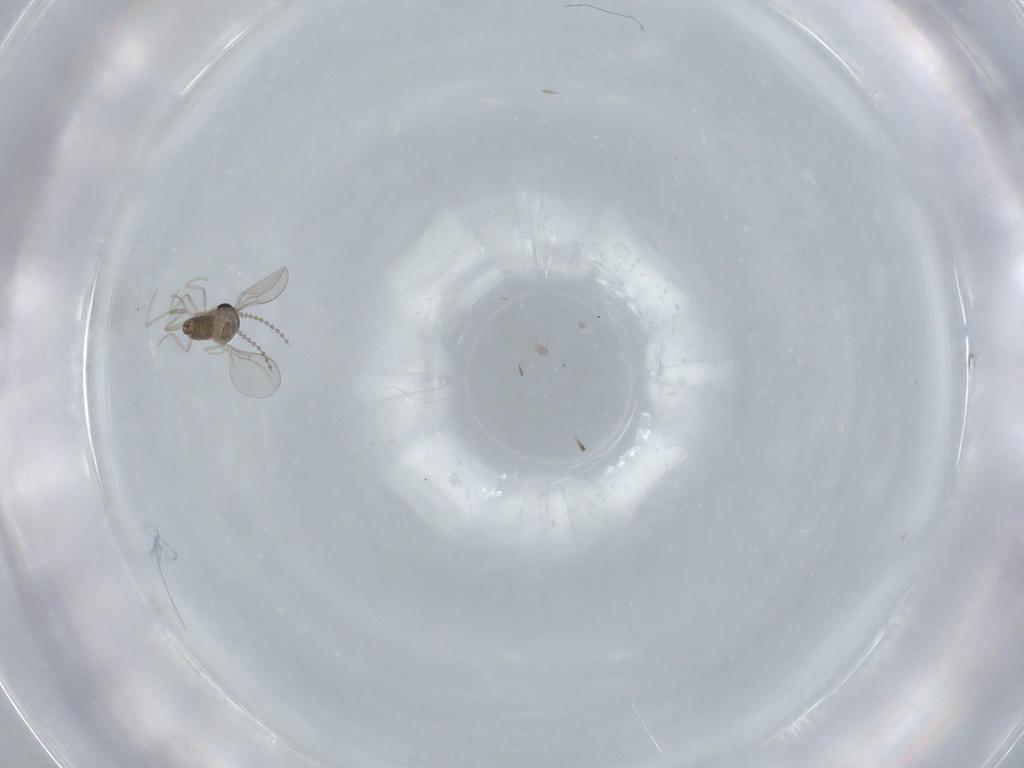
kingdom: Animalia
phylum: Arthropoda
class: Insecta
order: Diptera
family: Cecidomyiidae
